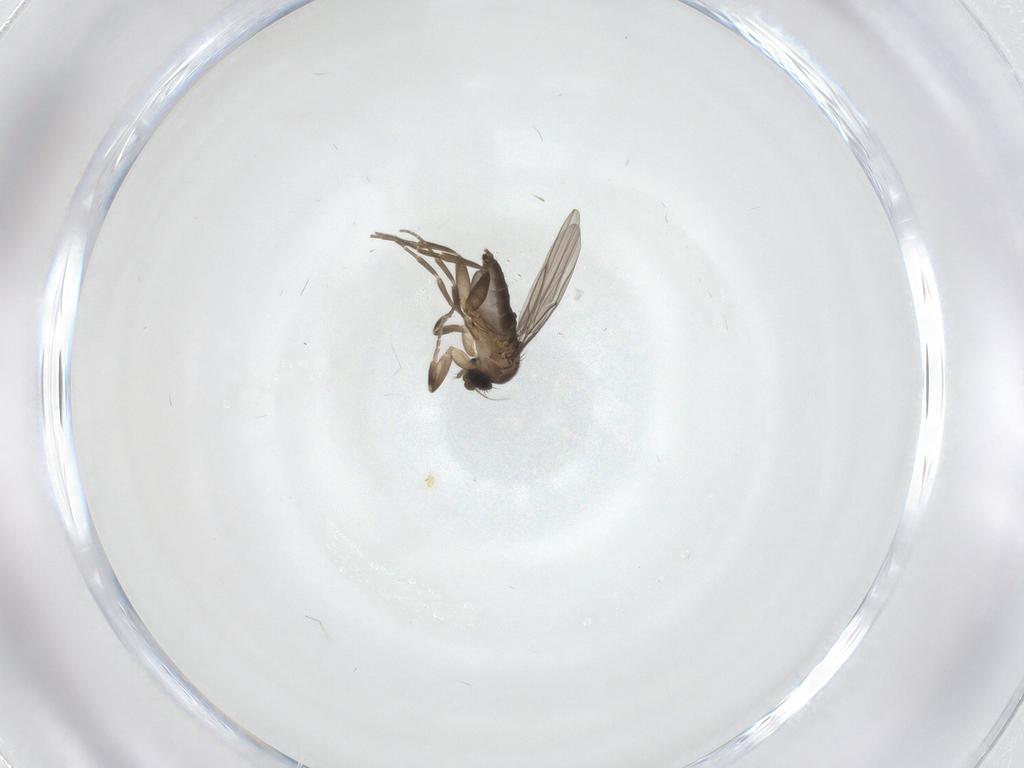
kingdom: Animalia
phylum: Arthropoda
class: Insecta
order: Diptera
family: Phoridae
